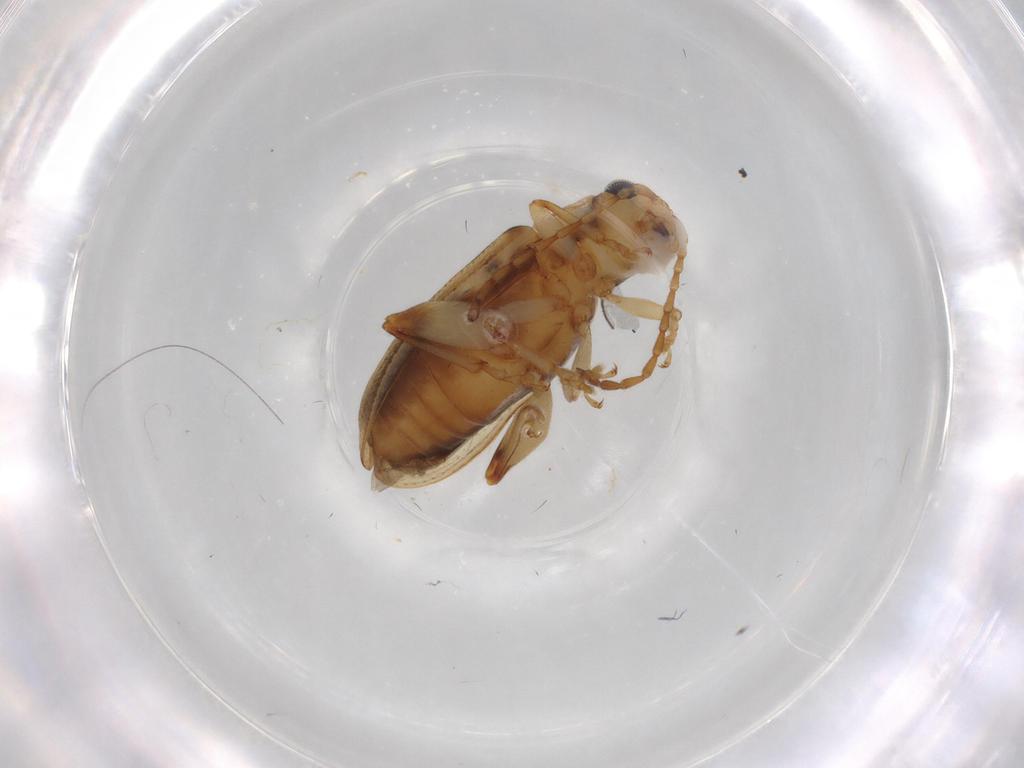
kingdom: Animalia
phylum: Arthropoda
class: Insecta
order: Coleoptera
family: Chrysomelidae
